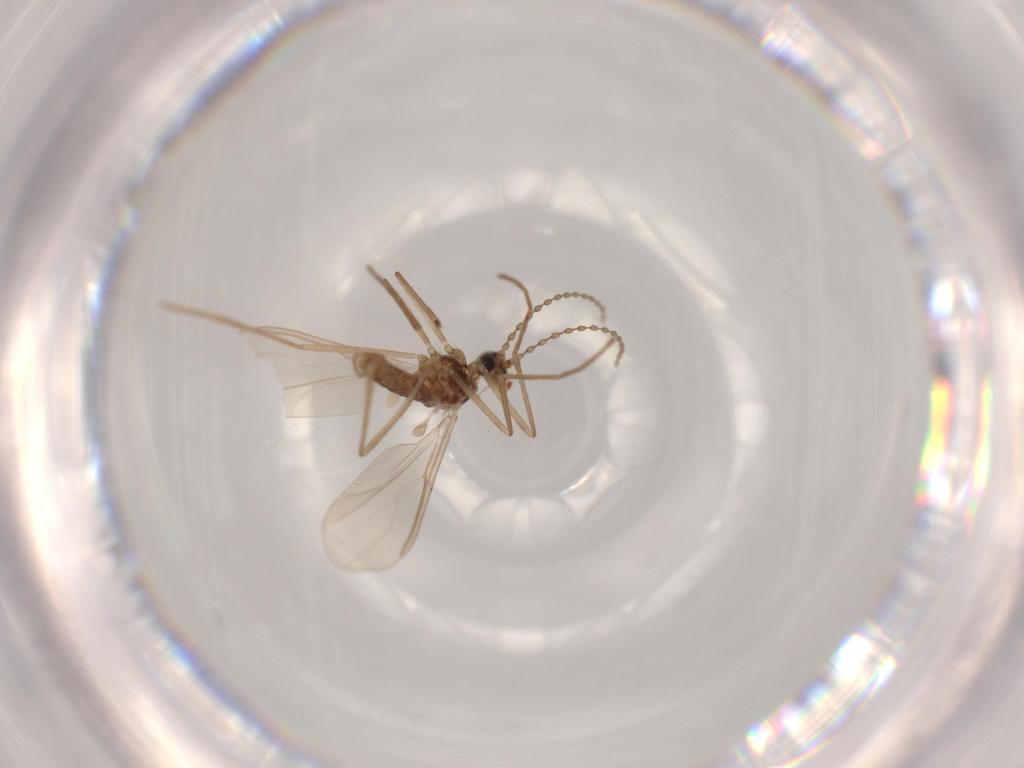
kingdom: Animalia
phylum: Arthropoda
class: Insecta
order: Diptera
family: Cecidomyiidae
